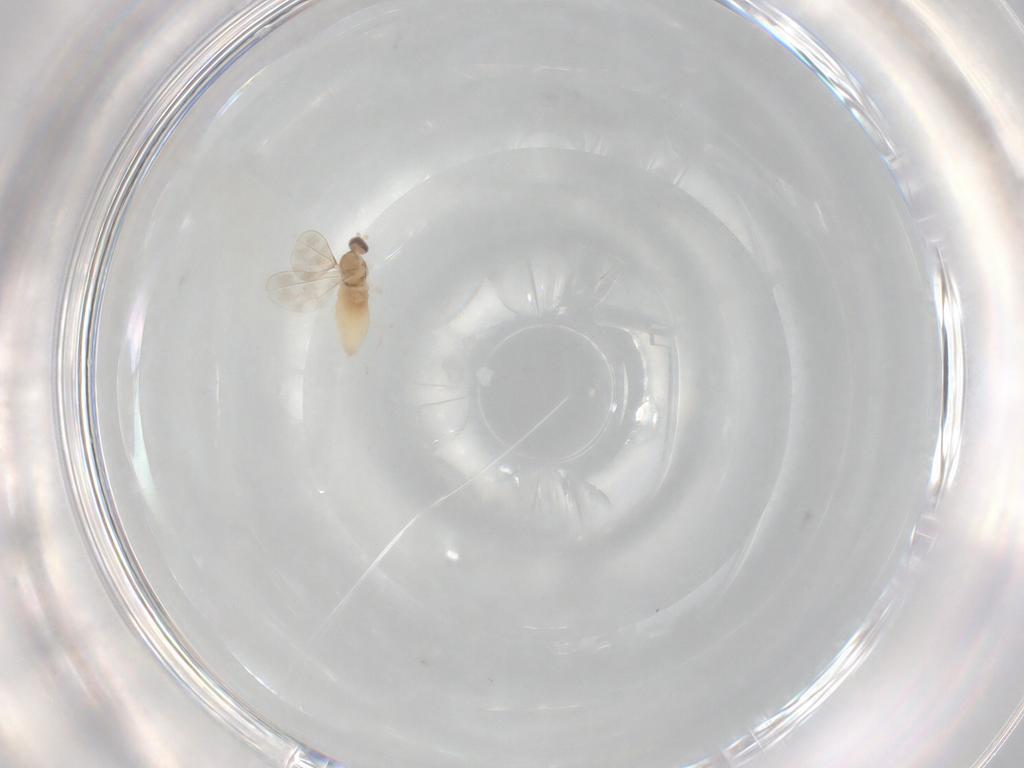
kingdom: Animalia
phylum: Arthropoda
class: Insecta
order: Diptera
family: Cecidomyiidae
